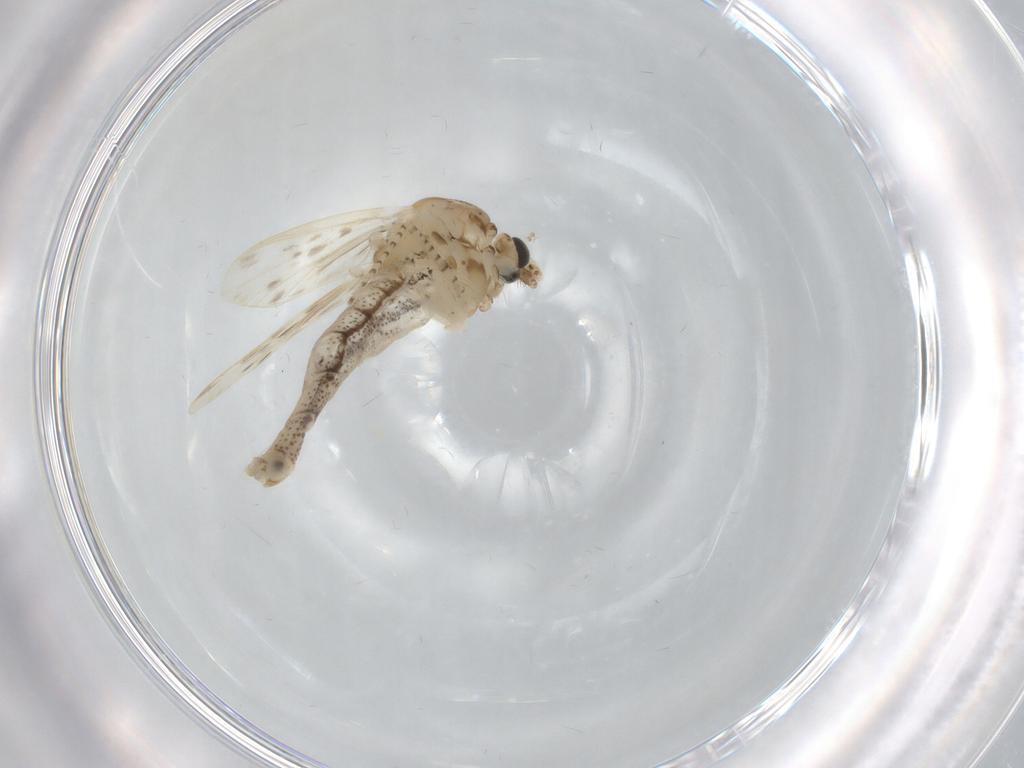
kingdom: Animalia
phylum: Arthropoda
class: Insecta
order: Diptera
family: Chaoboridae
